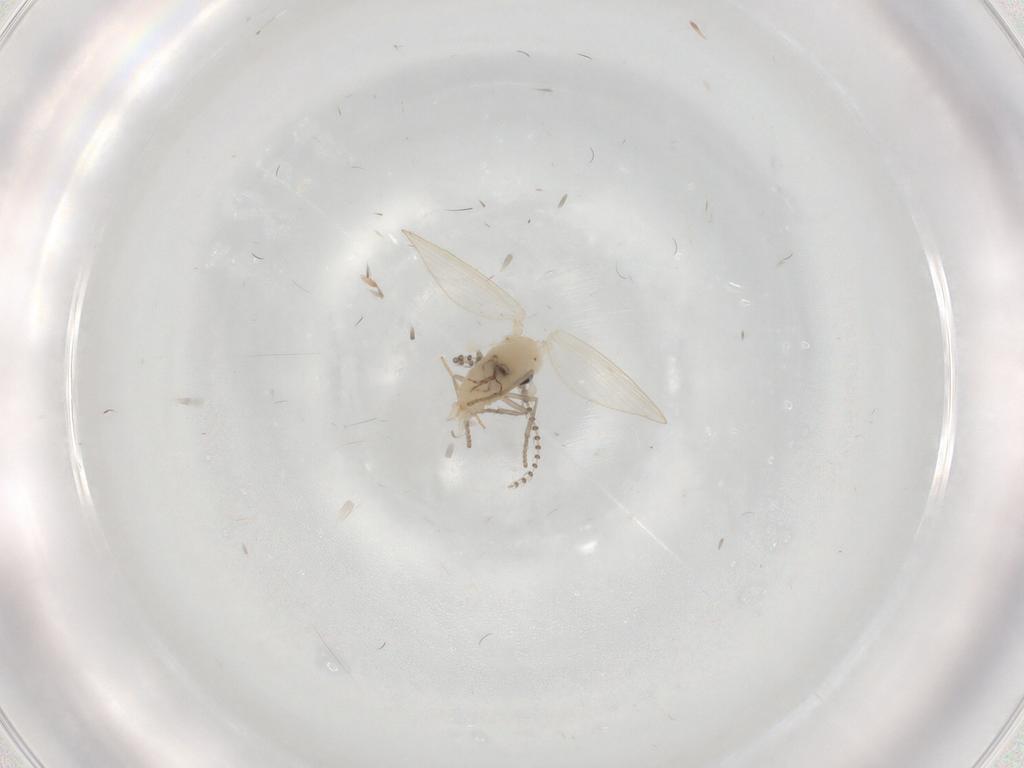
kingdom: Animalia
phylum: Arthropoda
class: Insecta
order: Diptera
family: Psychodidae
